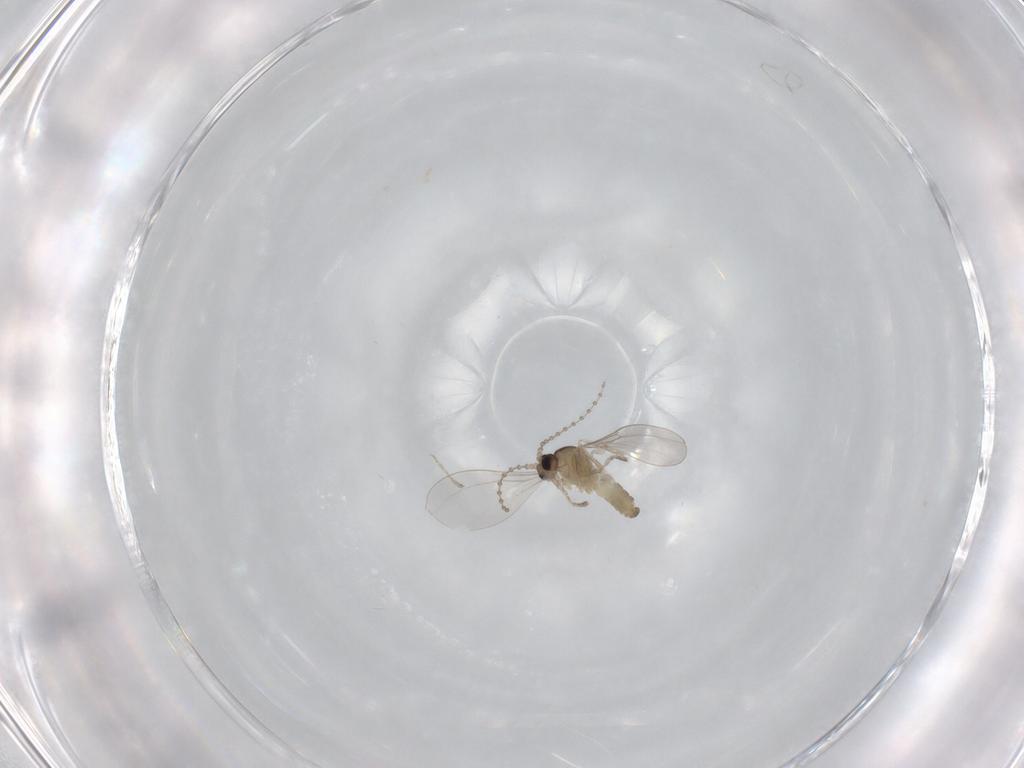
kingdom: Animalia
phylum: Arthropoda
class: Insecta
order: Diptera
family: Cecidomyiidae
